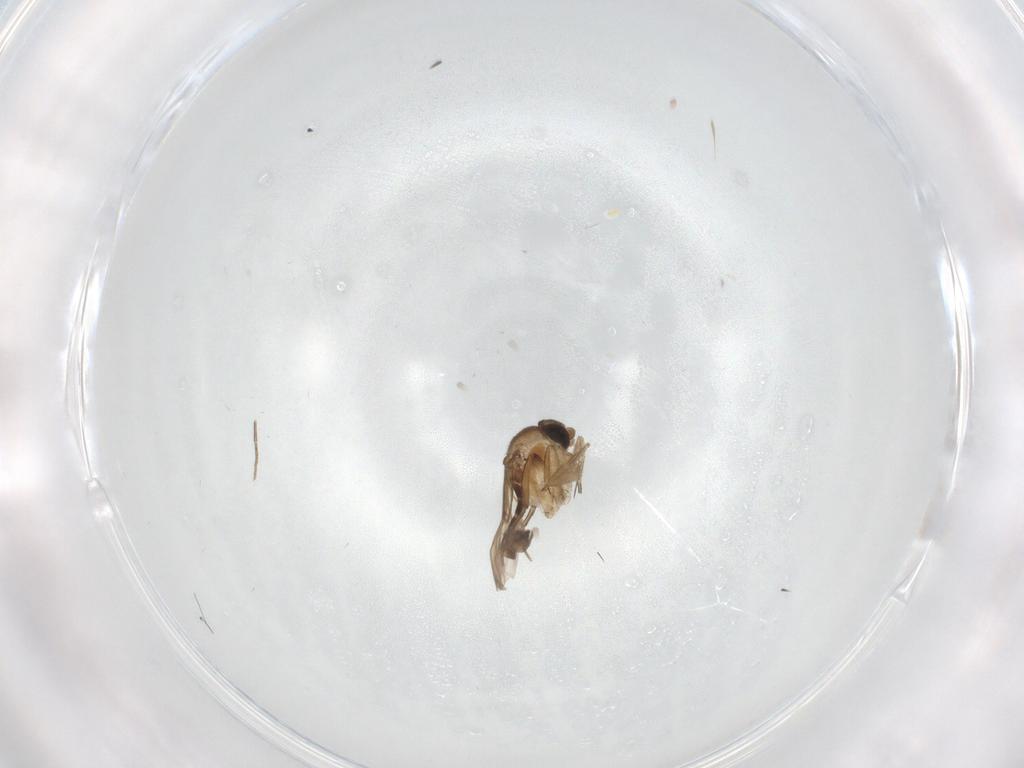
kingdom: Animalia
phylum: Arthropoda
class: Insecta
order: Diptera
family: Phoridae
